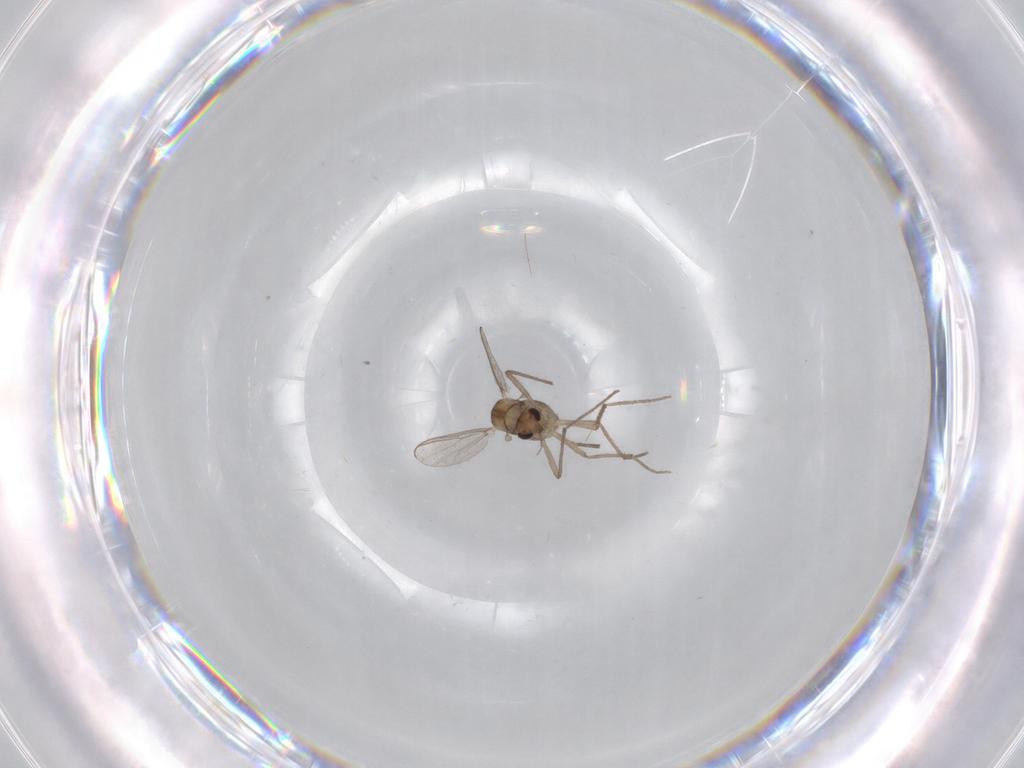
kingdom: Animalia
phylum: Arthropoda
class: Insecta
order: Diptera
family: Chironomidae
